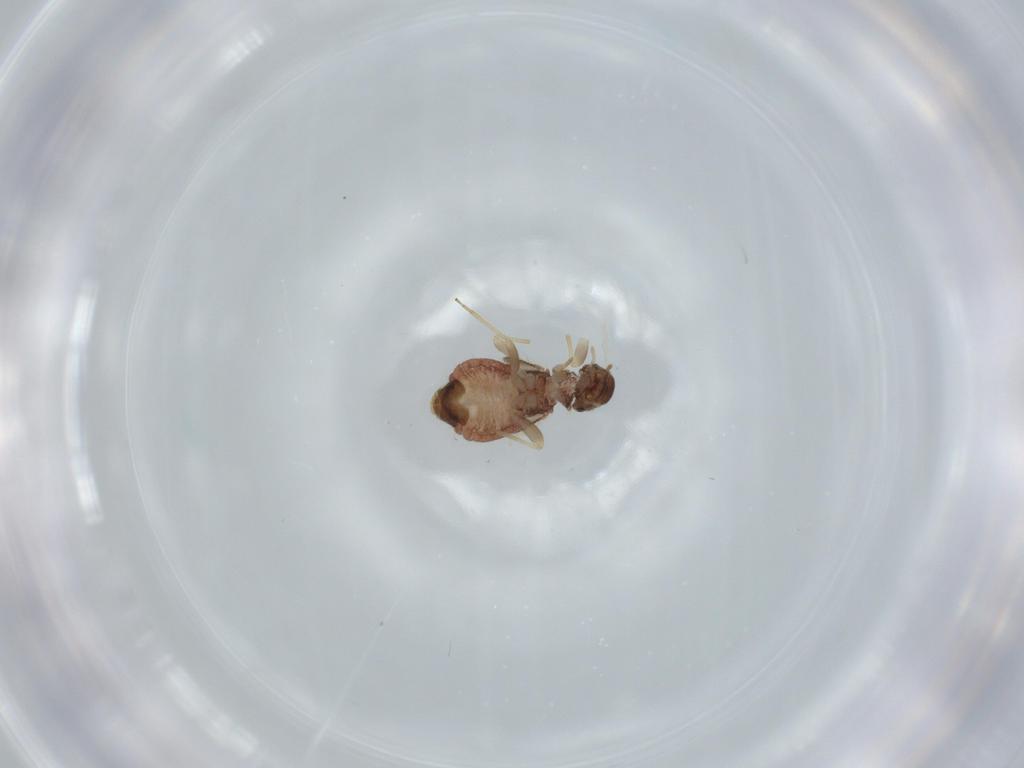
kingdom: Animalia
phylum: Arthropoda
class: Insecta
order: Psocodea
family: Archipsocidae
